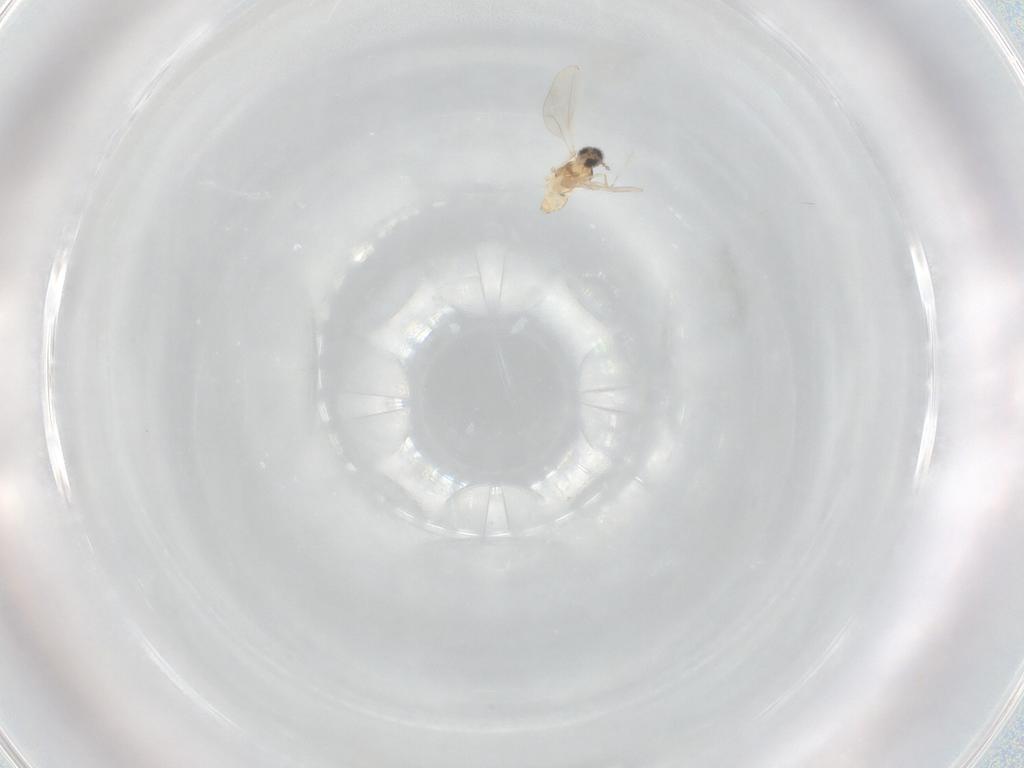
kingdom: Animalia
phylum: Arthropoda
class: Insecta
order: Diptera
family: Cecidomyiidae
